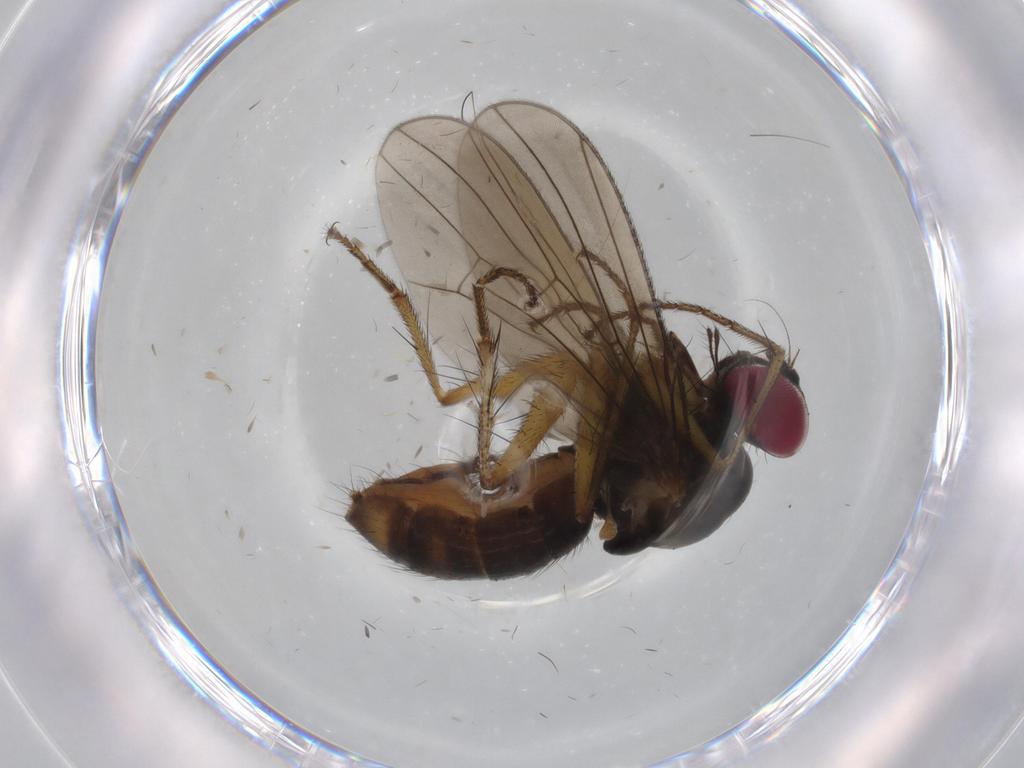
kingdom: Animalia
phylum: Arthropoda
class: Insecta
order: Diptera
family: Anthomyiidae
